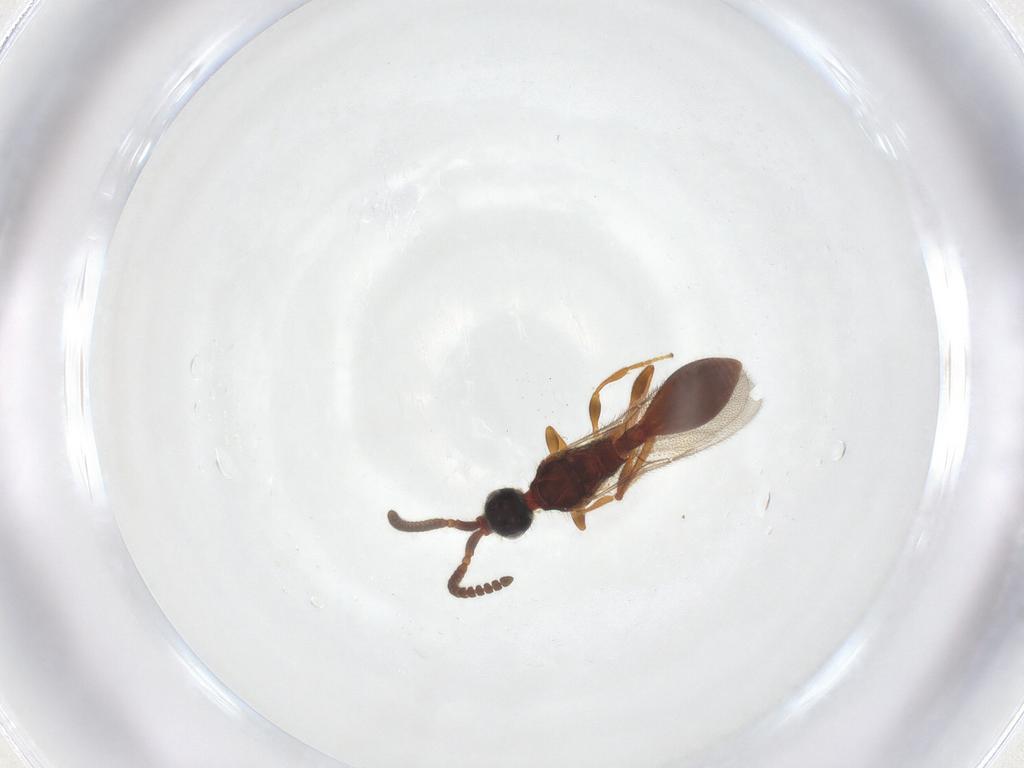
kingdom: Animalia
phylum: Arthropoda
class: Insecta
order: Hymenoptera
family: Diapriidae
